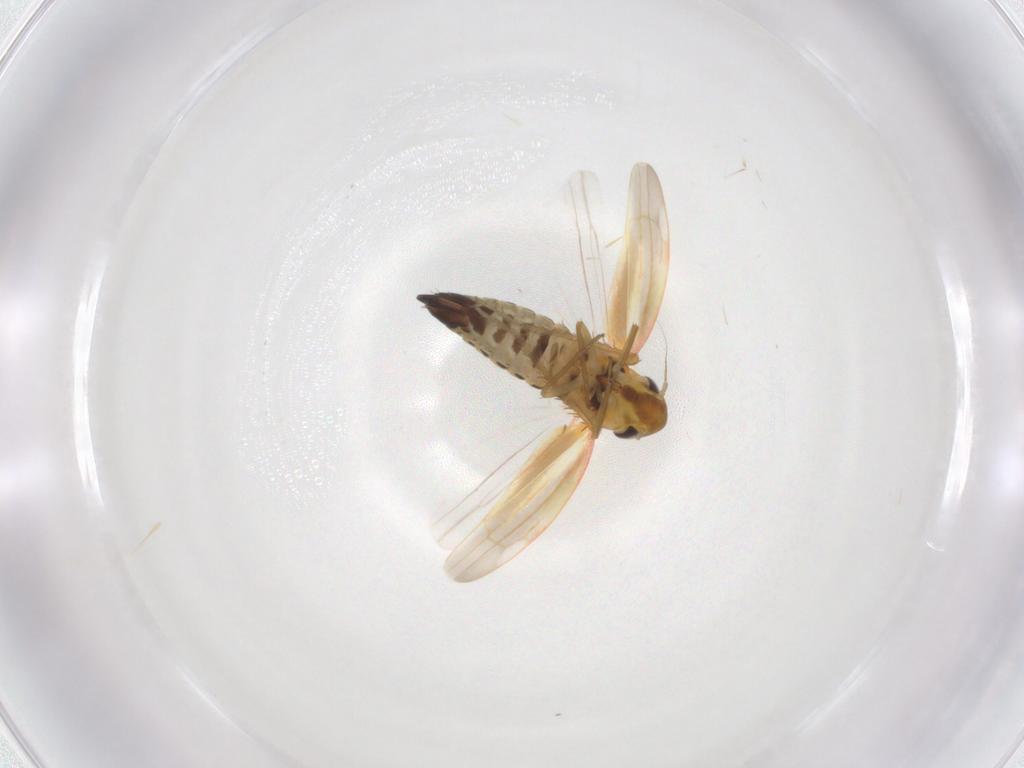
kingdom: Animalia
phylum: Arthropoda
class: Insecta
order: Hemiptera
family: Cicadellidae
